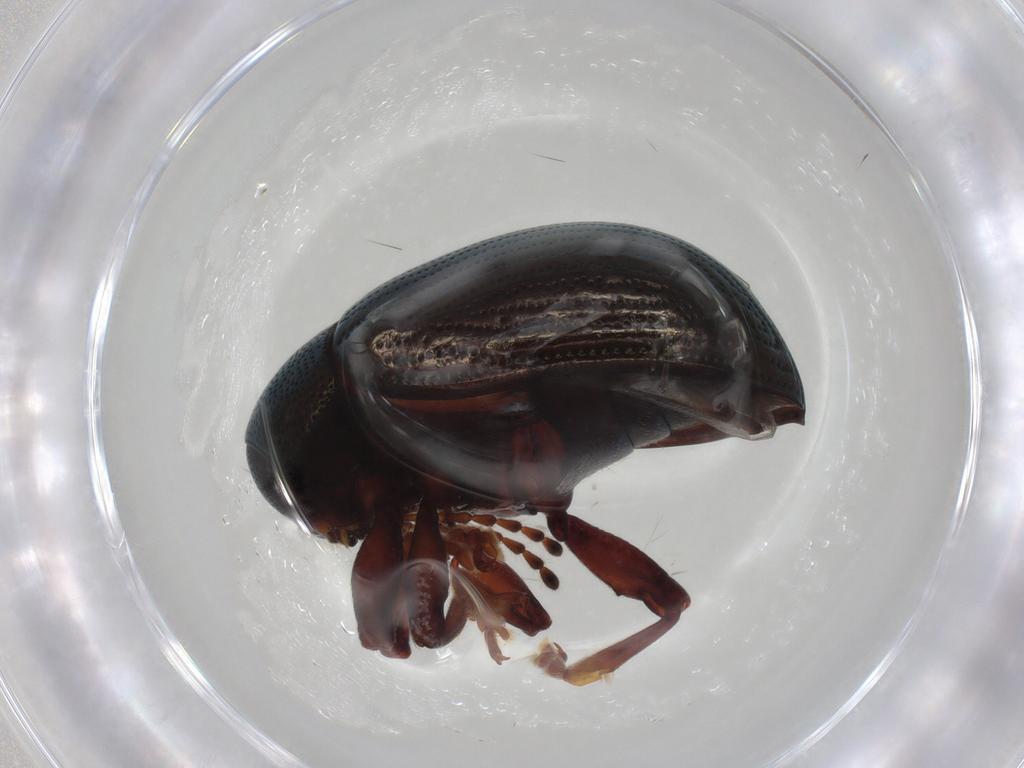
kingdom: Animalia
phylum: Arthropoda
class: Insecta
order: Coleoptera
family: Chrysomelidae
